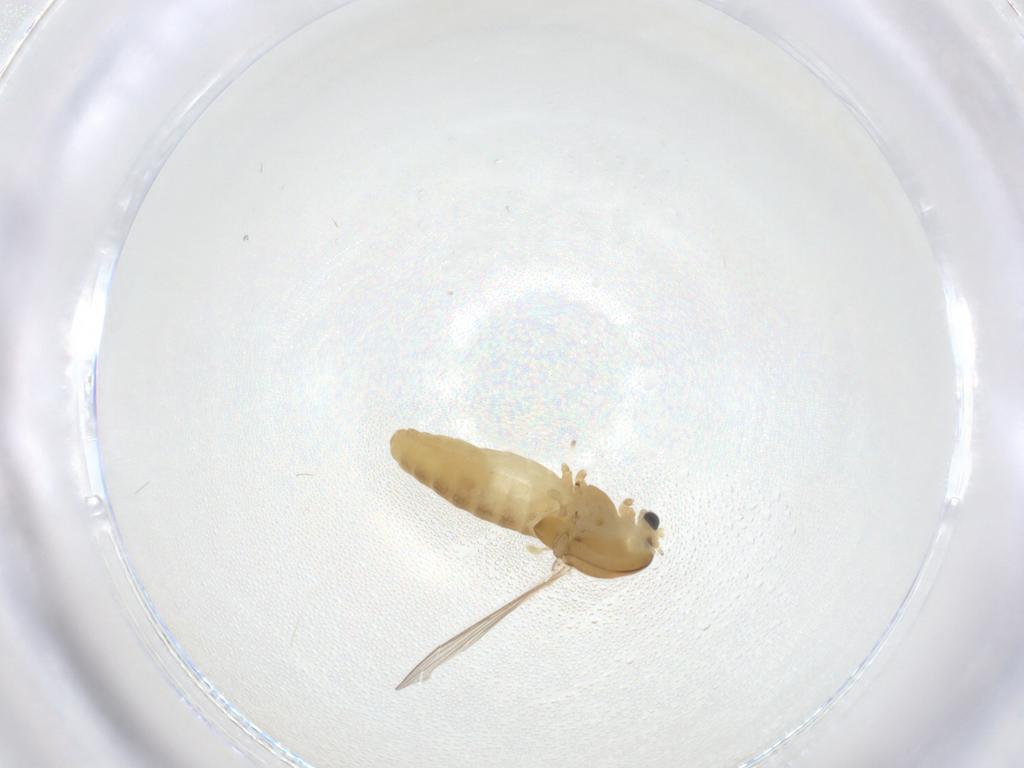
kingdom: Animalia
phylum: Arthropoda
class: Insecta
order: Diptera
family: Chironomidae
